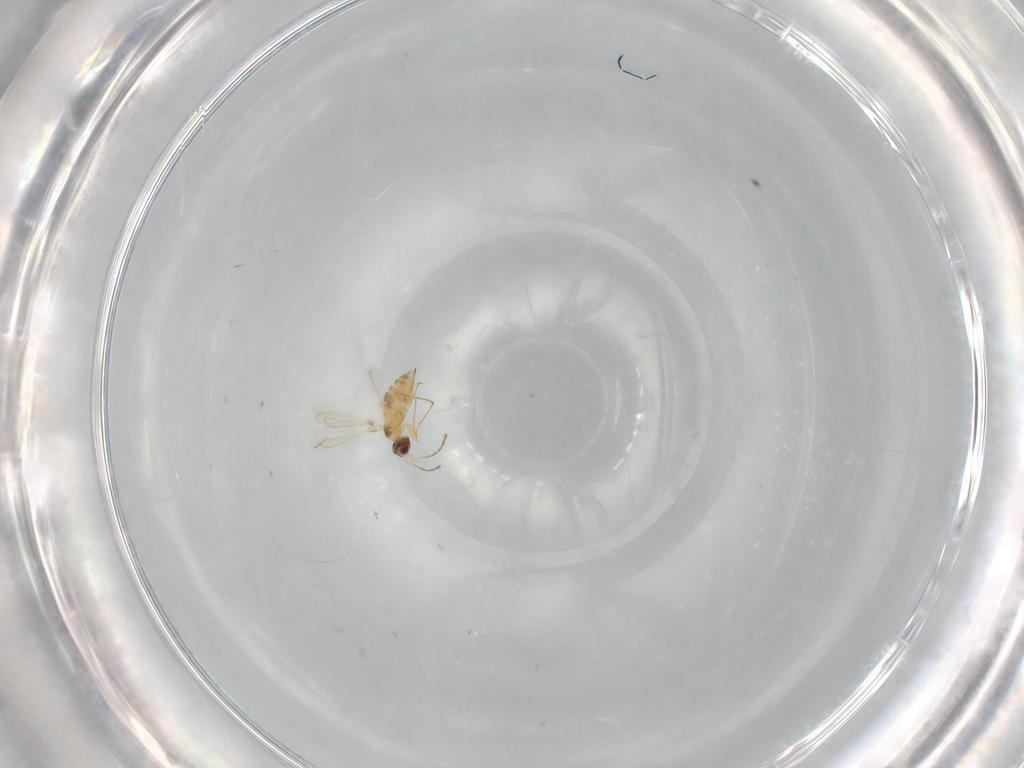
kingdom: Animalia
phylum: Arthropoda
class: Insecta
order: Hymenoptera
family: Mymaridae
